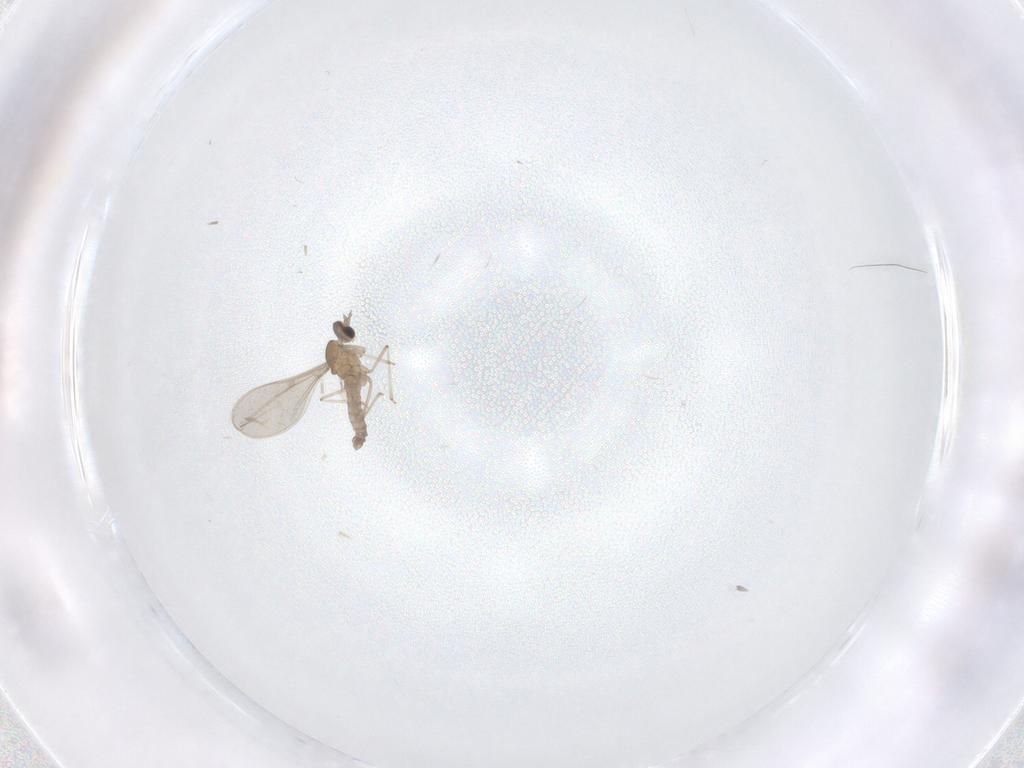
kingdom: Animalia
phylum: Arthropoda
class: Insecta
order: Diptera
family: Cecidomyiidae
